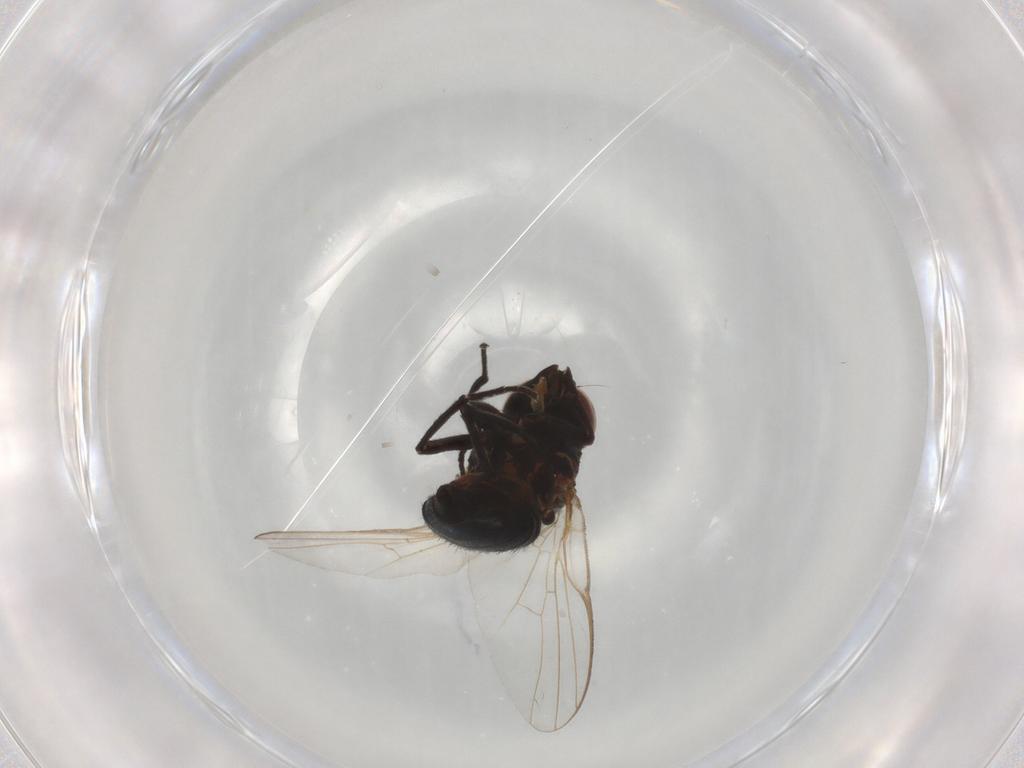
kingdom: Animalia
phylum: Arthropoda
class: Insecta
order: Diptera
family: Agromyzidae
